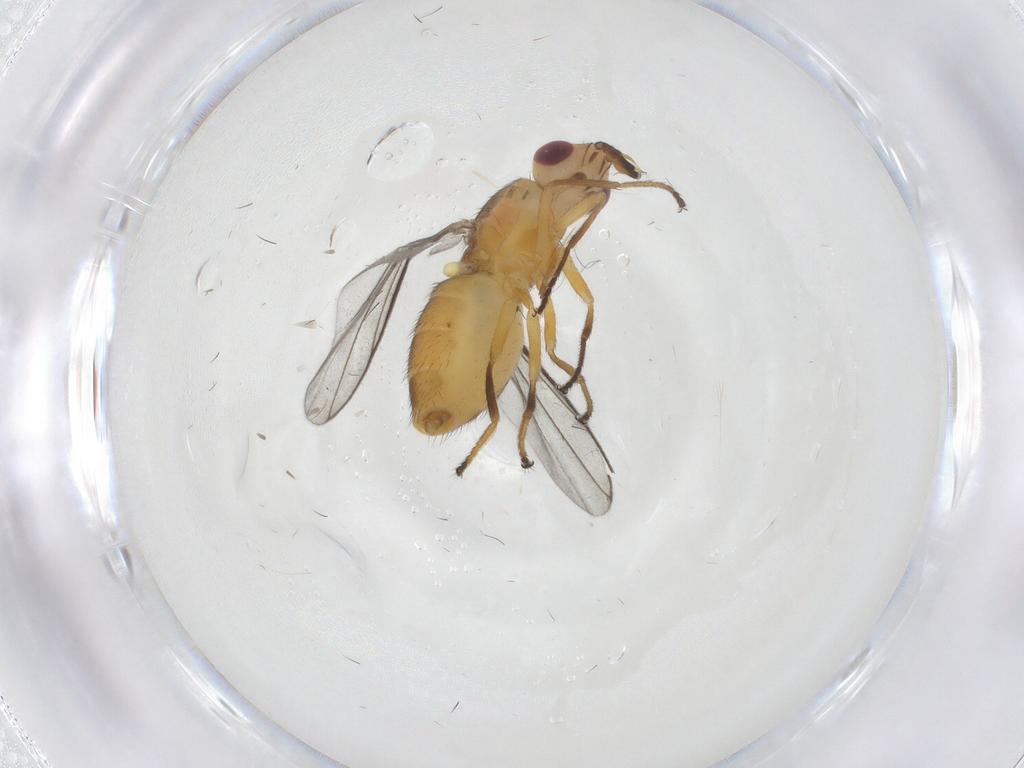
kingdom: Animalia
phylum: Arthropoda
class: Insecta
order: Diptera
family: Chloropidae
